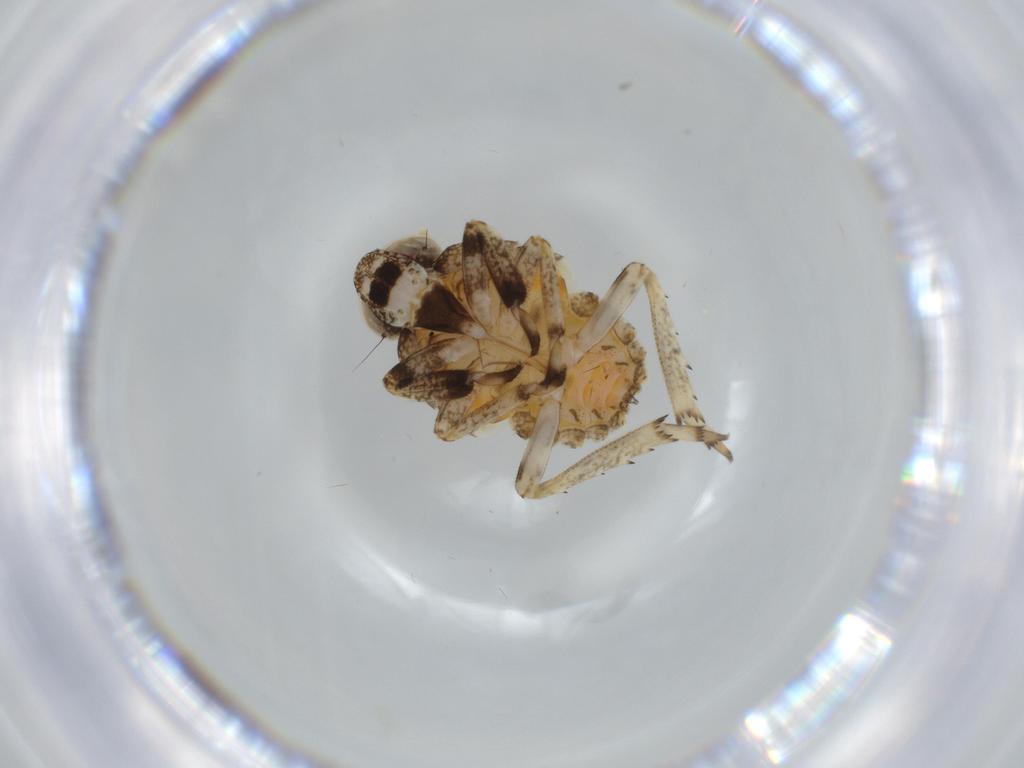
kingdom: Animalia
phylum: Arthropoda
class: Insecta
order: Hemiptera
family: Issidae
